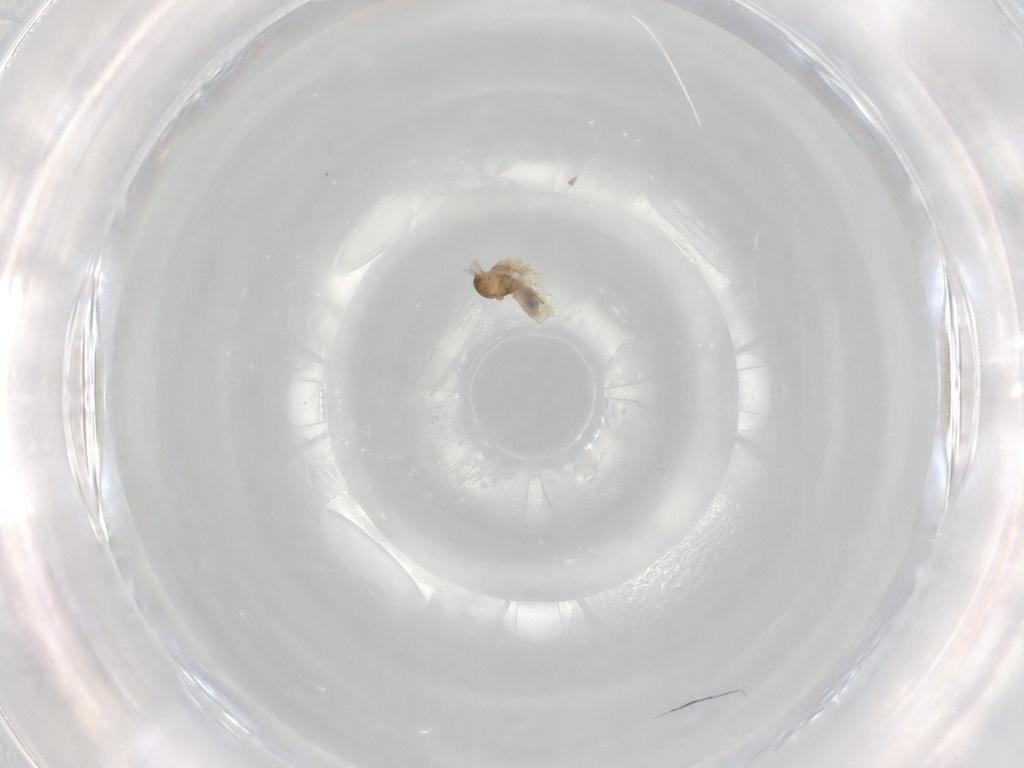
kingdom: Animalia
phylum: Arthropoda
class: Insecta
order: Diptera
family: Cecidomyiidae
